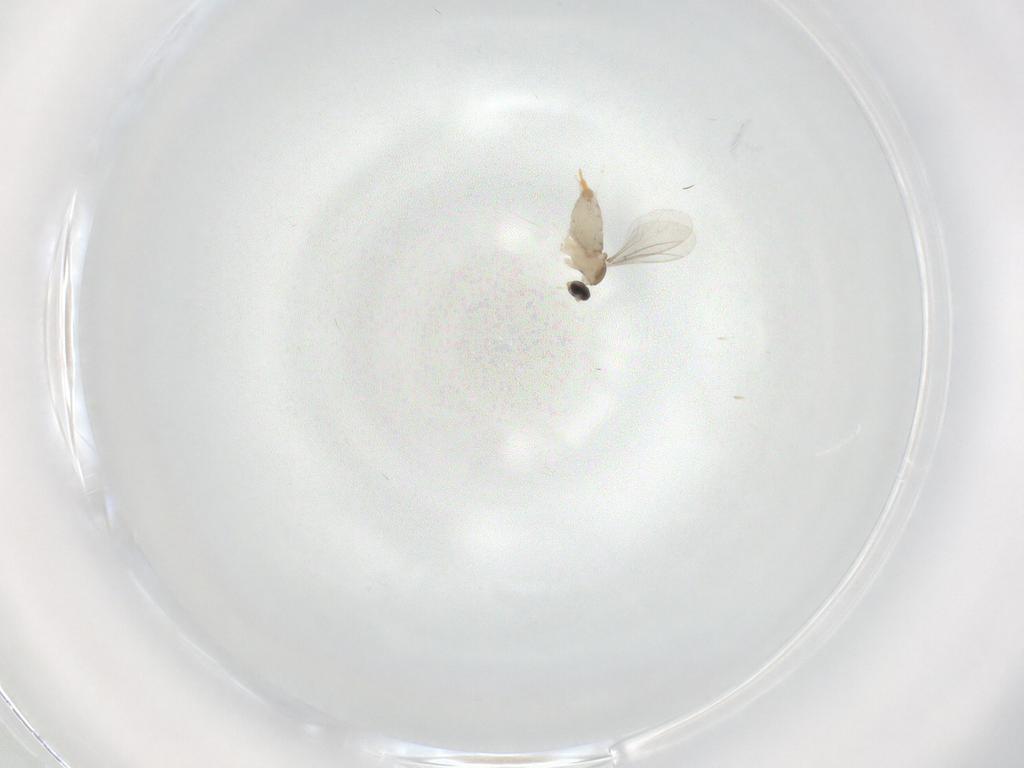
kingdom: Animalia
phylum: Arthropoda
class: Insecta
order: Diptera
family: Cecidomyiidae
